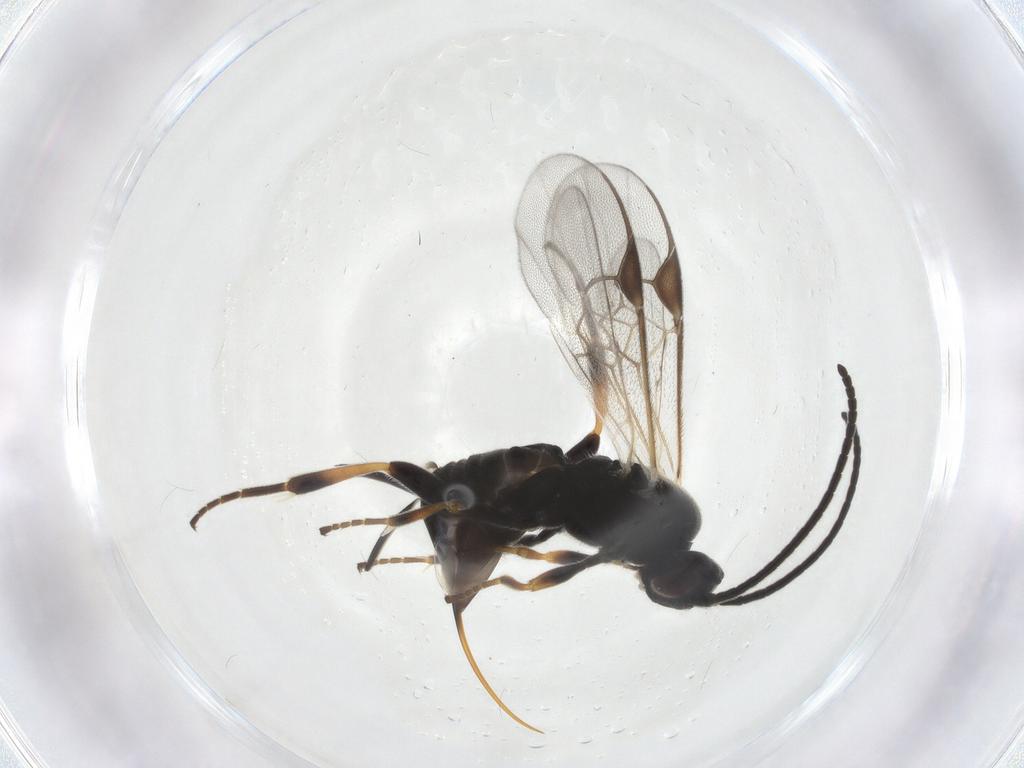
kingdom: Animalia
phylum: Arthropoda
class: Insecta
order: Hymenoptera
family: Braconidae
